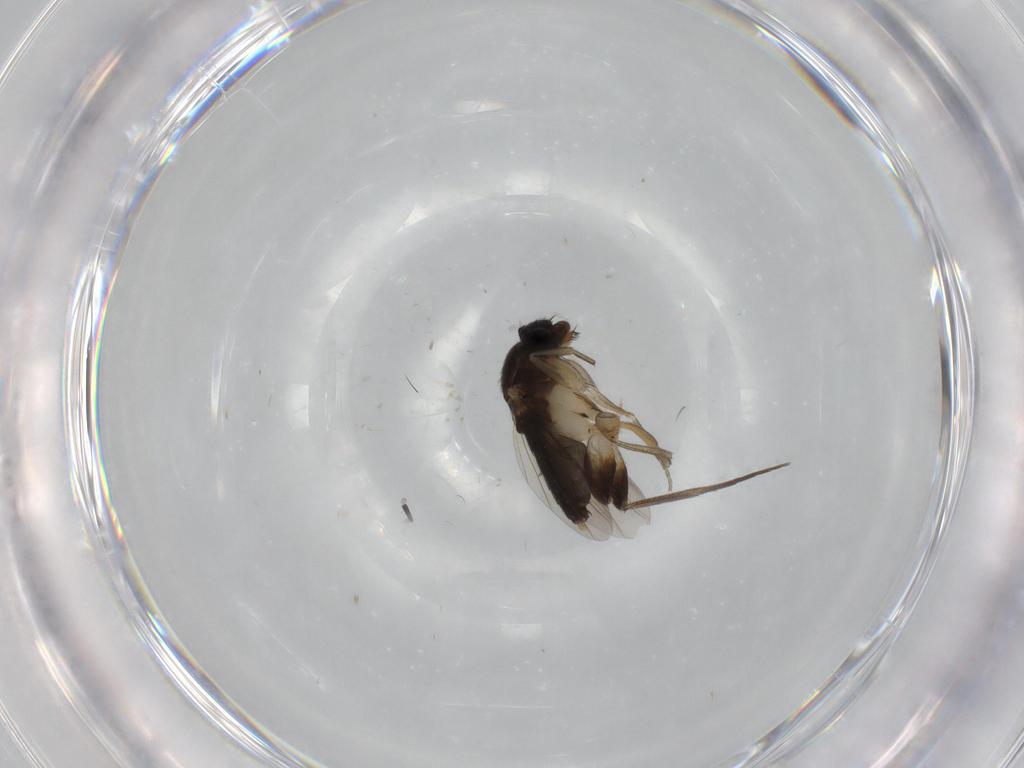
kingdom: Animalia
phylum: Arthropoda
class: Insecta
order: Diptera
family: Phoridae
